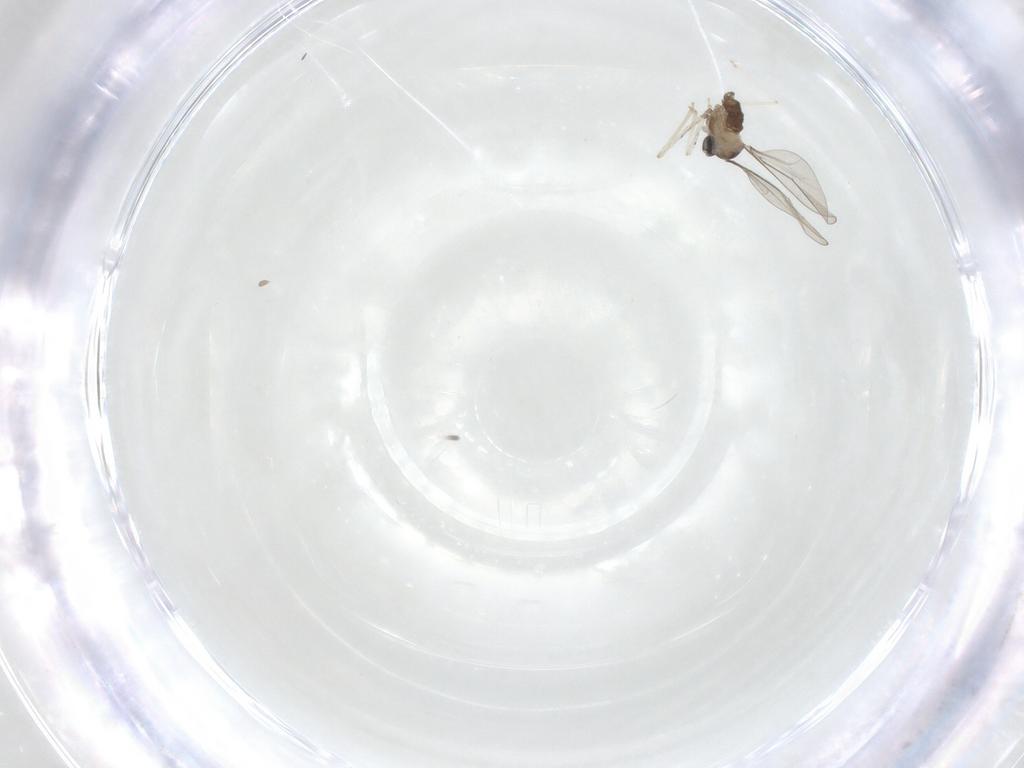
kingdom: Animalia
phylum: Arthropoda
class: Insecta
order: Diptera
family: Cecidomyiidae
